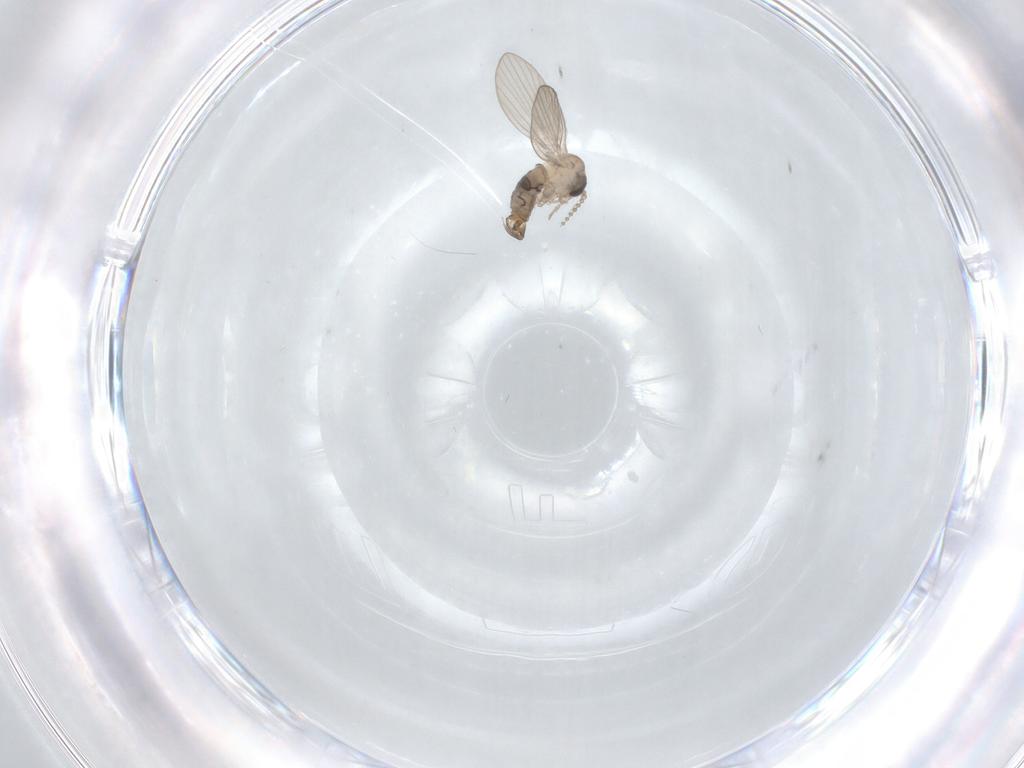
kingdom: Animalia
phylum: Arthropoda
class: Insecta
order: Diptera
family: Psychodidae
